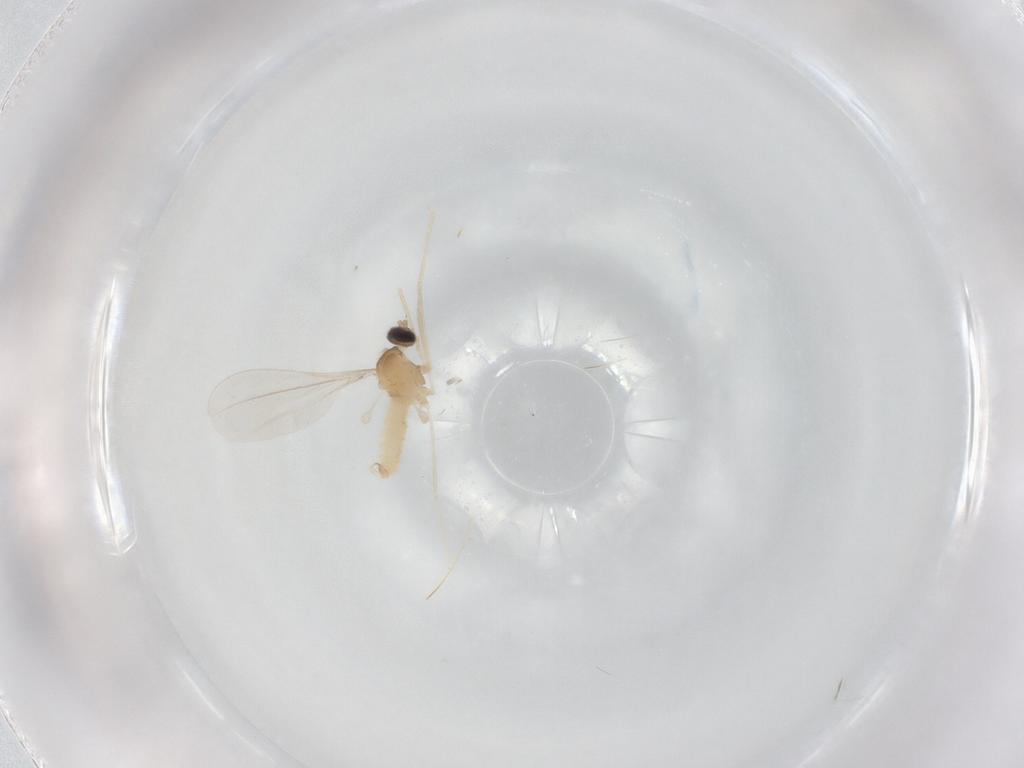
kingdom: Animalia
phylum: Arthropoda
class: Insecta
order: Diptera
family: Cecidomyiidae
